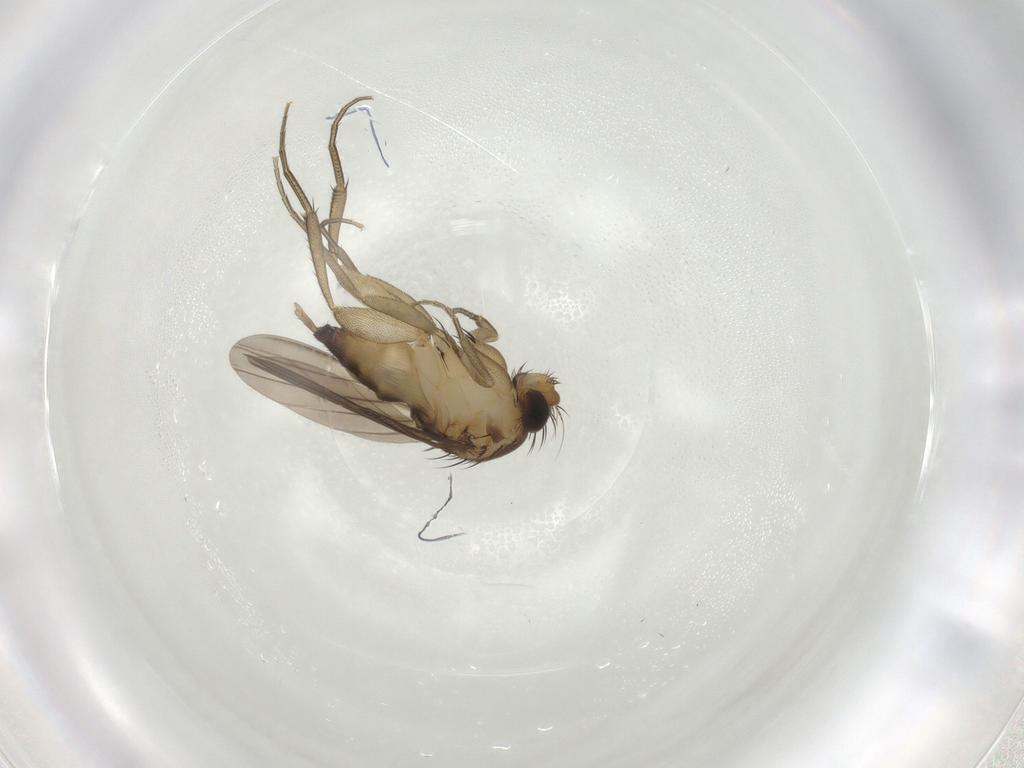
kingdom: Animalia
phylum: Arthropoda
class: Insecta
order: Diptera
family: Phoridae
